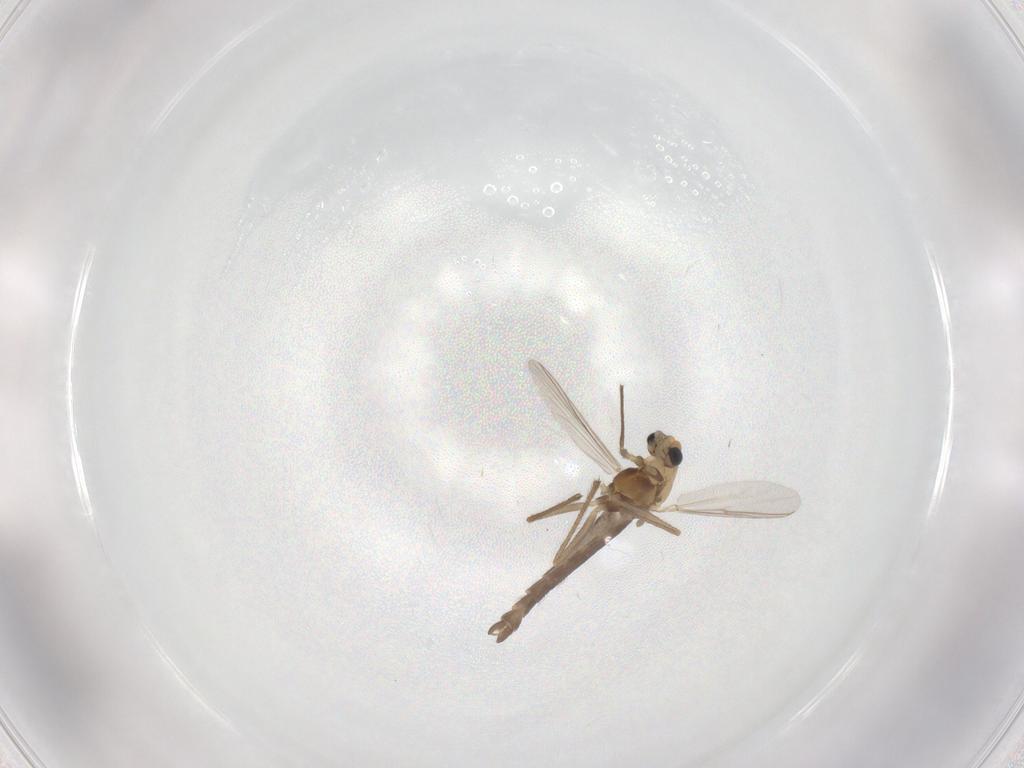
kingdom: Animalia
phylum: Arthropoda
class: Insecta
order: Diptera
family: Chironomidae
